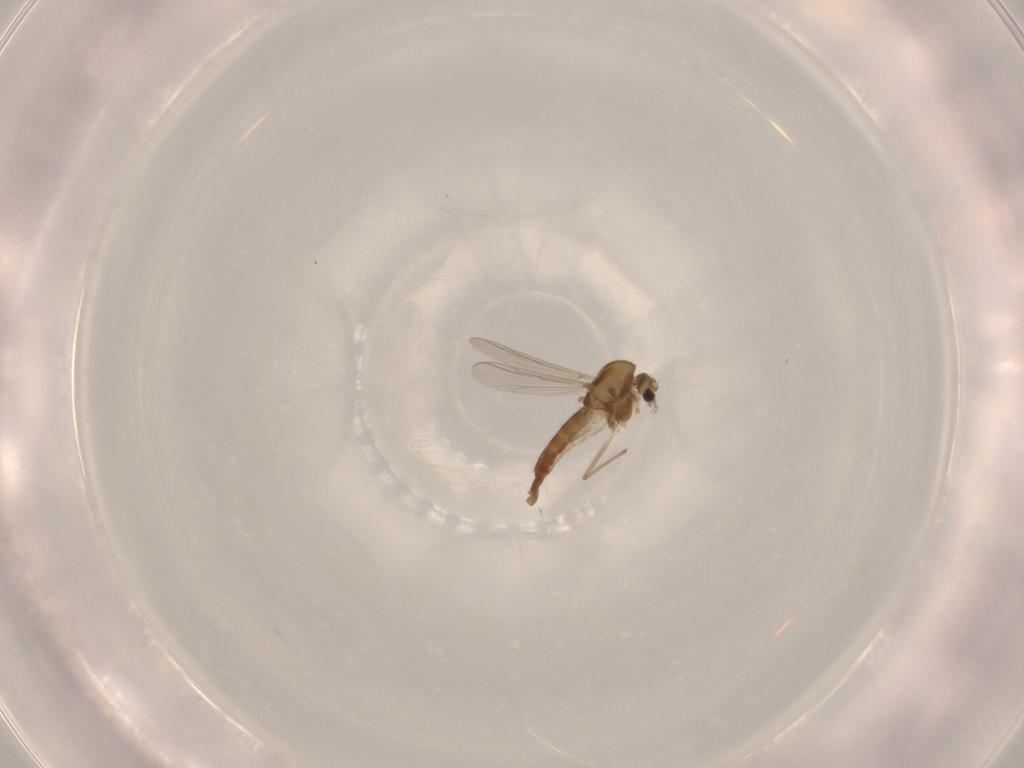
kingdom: Animalia
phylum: Arthropoda
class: Insecta
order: Diptera
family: Chironomidae
